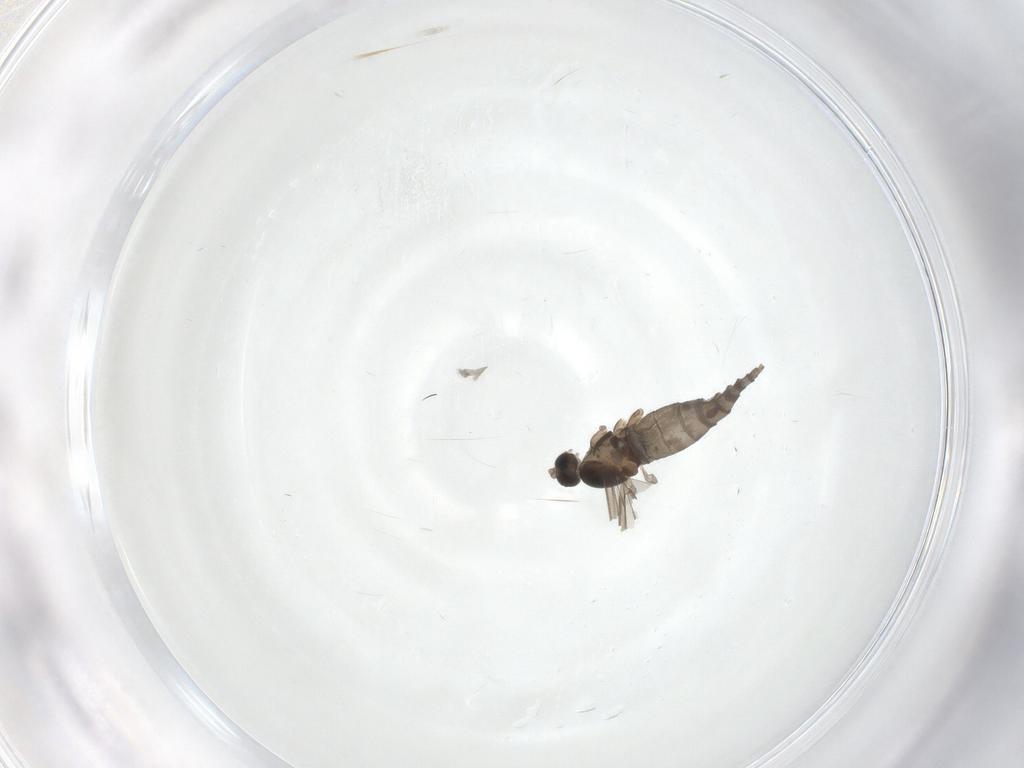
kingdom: Animalia
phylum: Arthropoda
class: Insecta
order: Diptera
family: Cecidomyiidae
